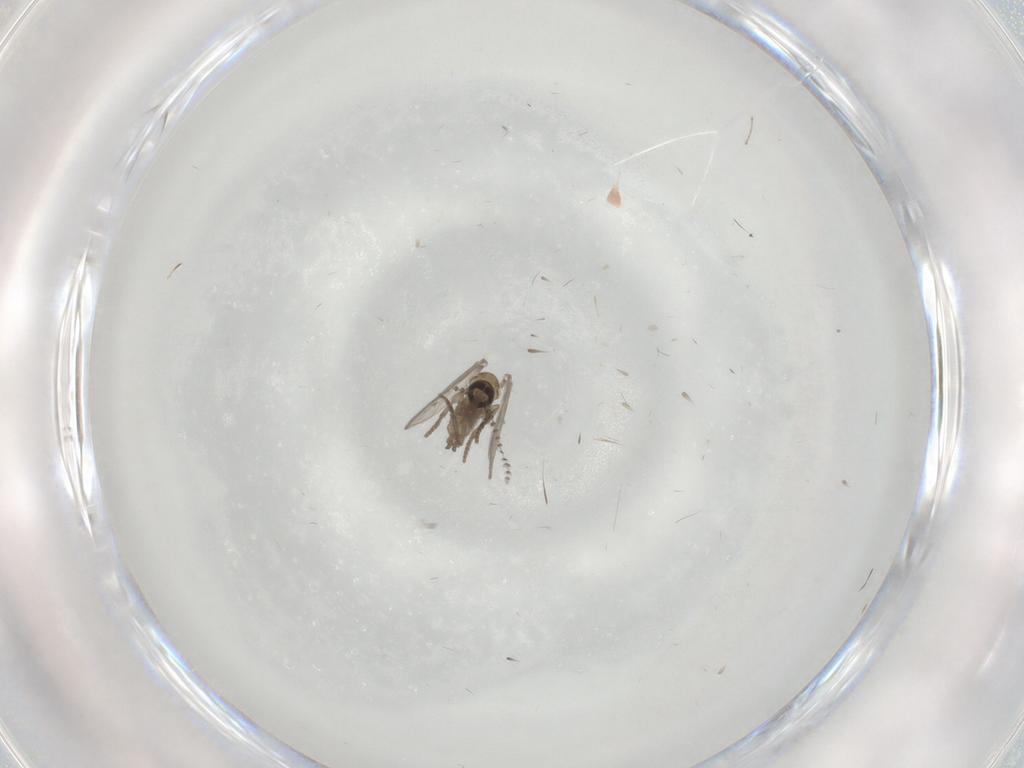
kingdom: Animalia
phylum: Arthropoda
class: Insecta
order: Diptera
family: Psychodidae
